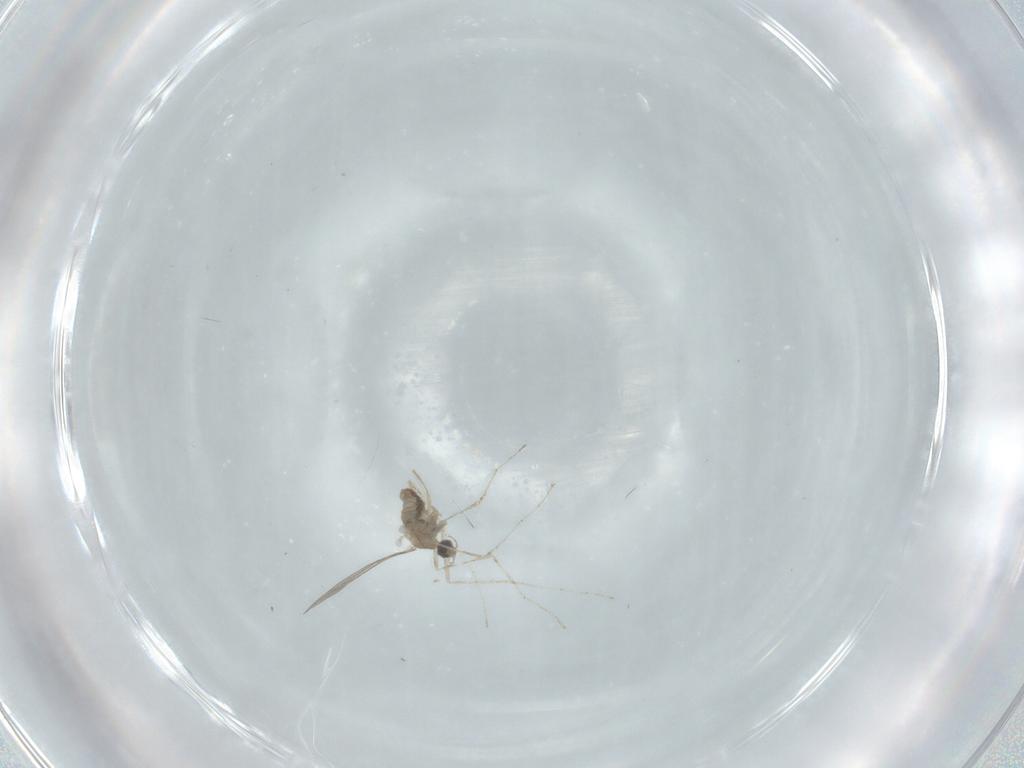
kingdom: Animalia
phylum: Arthropoda
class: Insecta
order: Diptera
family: Cecidomyiidae
